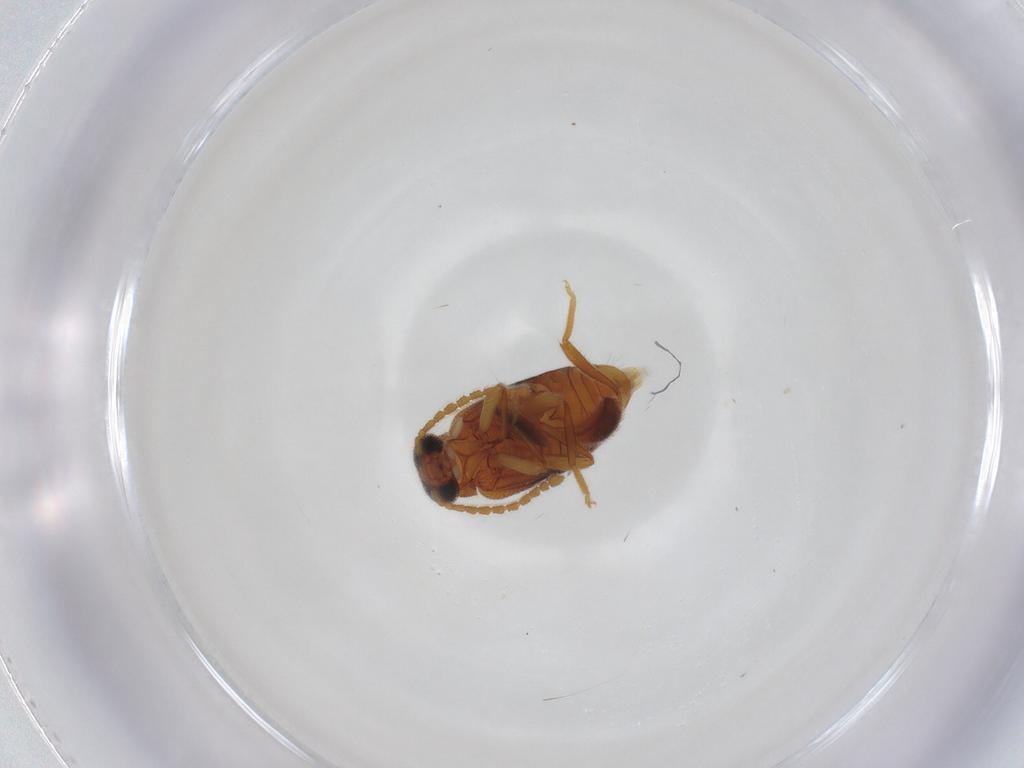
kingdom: Animalia
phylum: Arthropoda
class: Insecta
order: Coleoptera
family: Aderidae
